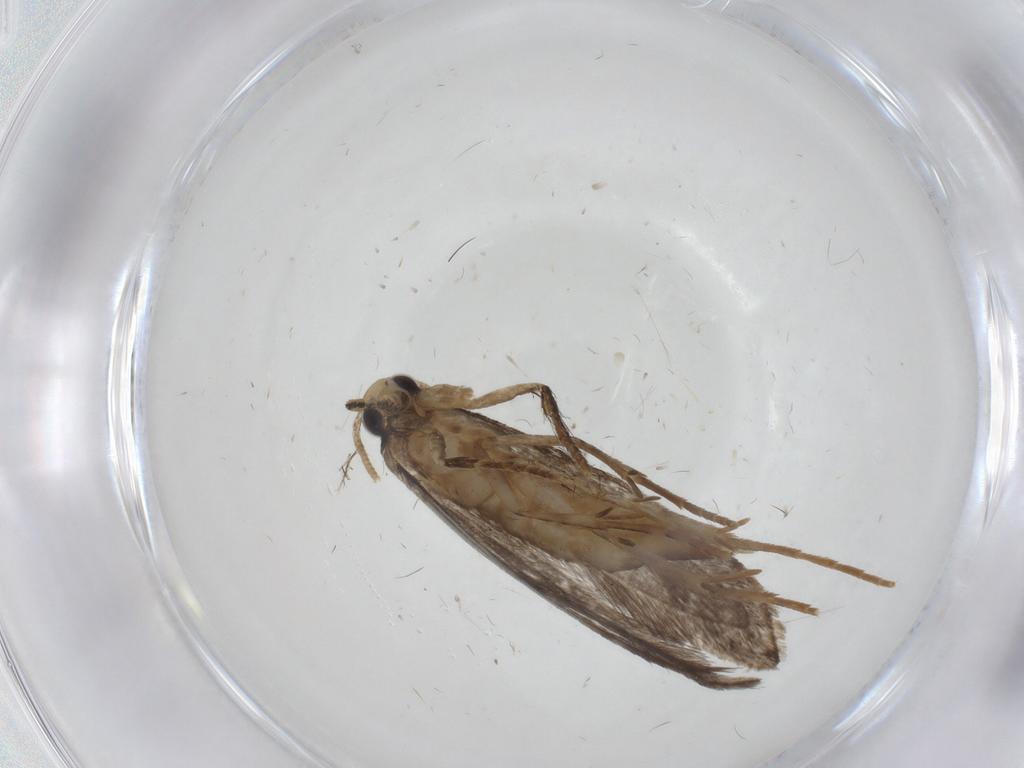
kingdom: Animalia
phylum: Arthropoda
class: Insecta
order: Lepidoptera
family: Tineidae
